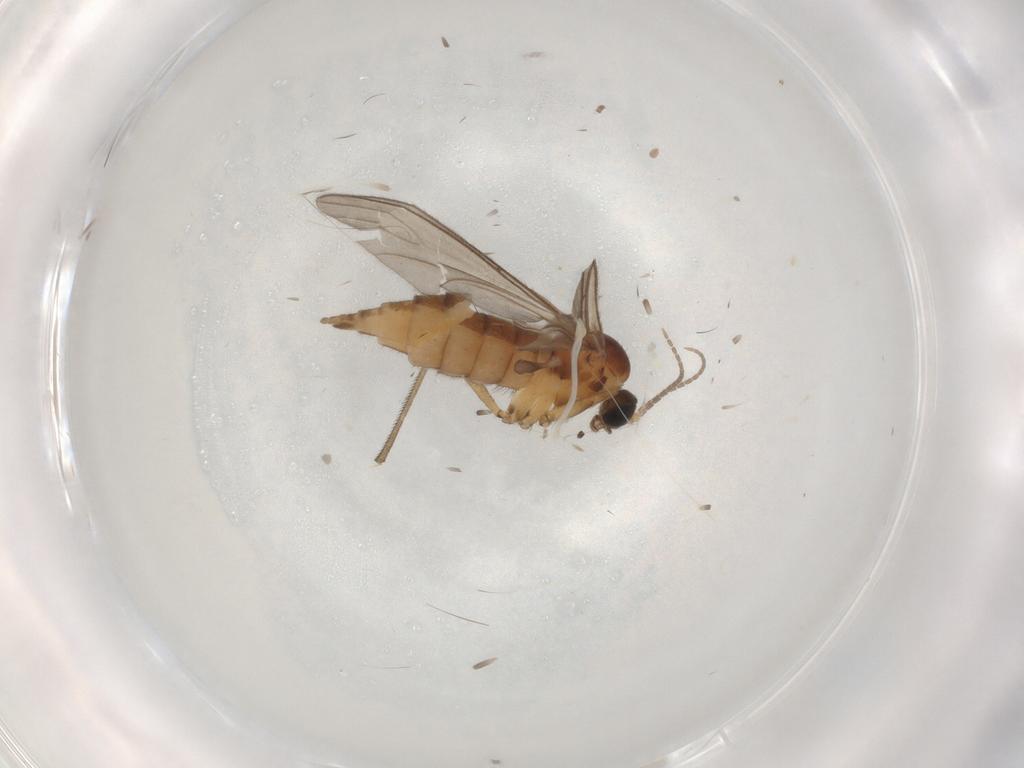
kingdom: Animalia
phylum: Arthropoda
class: Insecta
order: Diptera
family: Sciaridae
